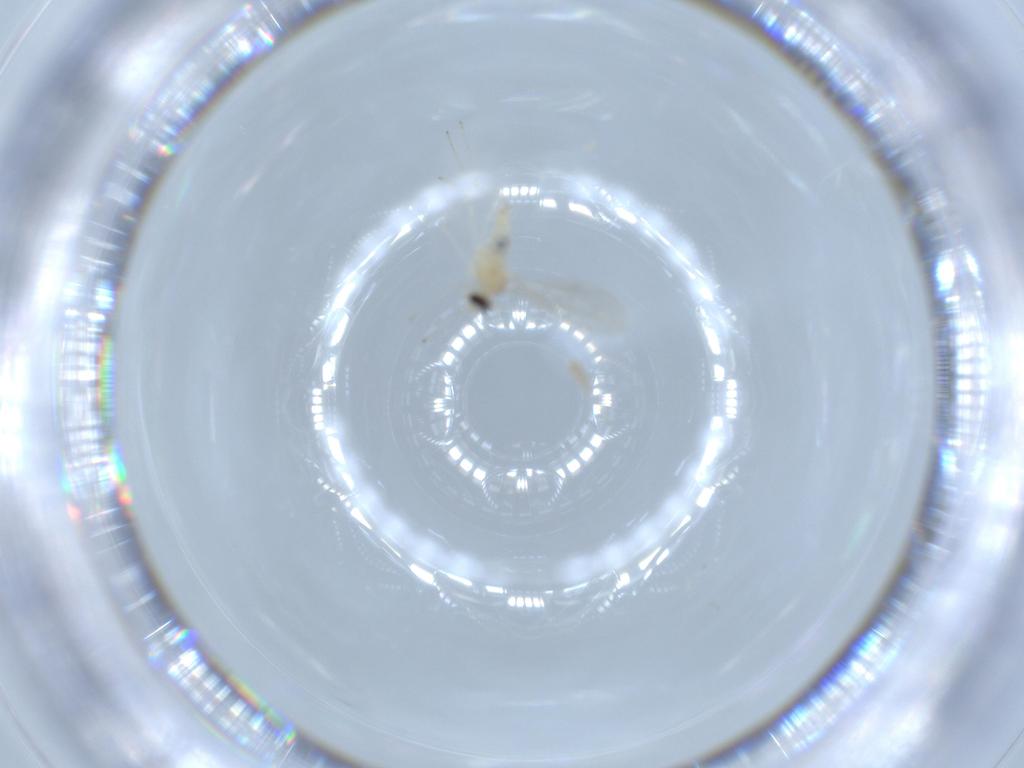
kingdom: Animalia
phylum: Arthropoda
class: Insecta
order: Diptera
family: Cecidomyiidae
